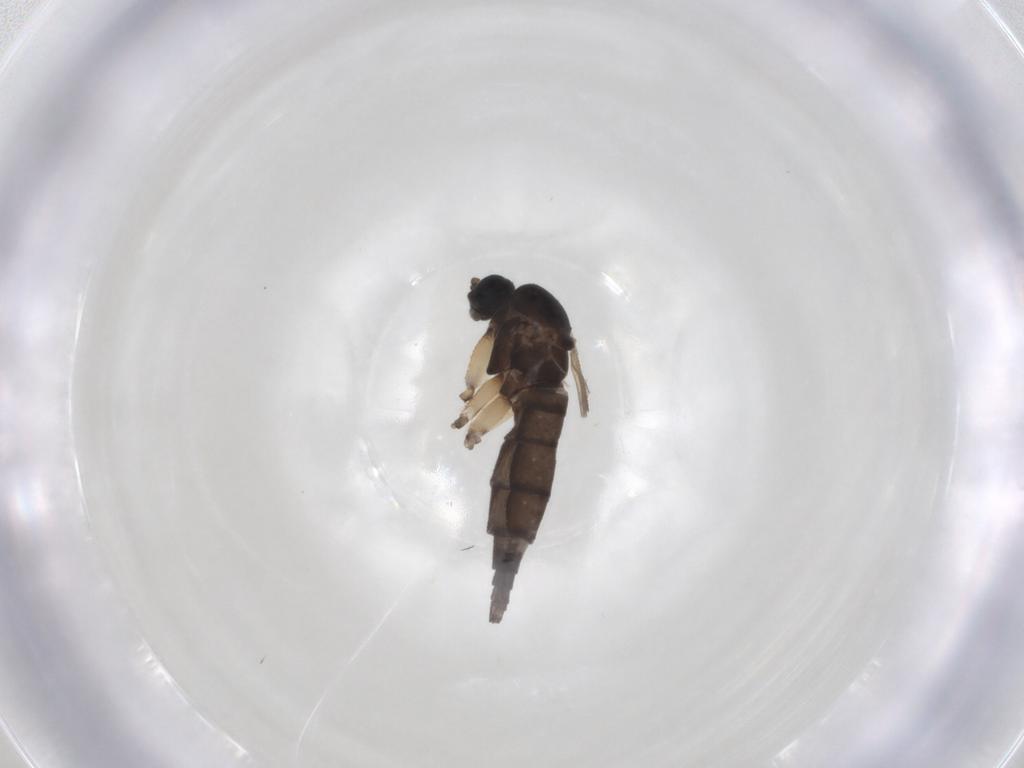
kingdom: Animalia
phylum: Arthropoda
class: Insecta
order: Diptera
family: Sciaridae
